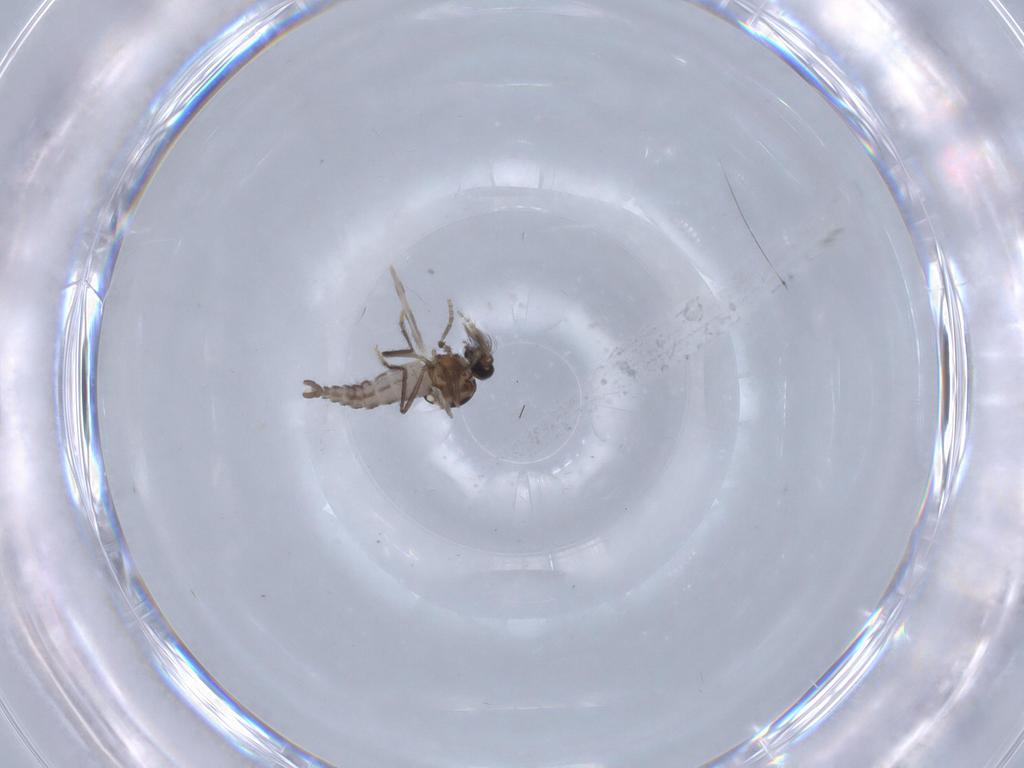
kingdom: Animalia
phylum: Arthropoda
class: Insecta
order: Diptera
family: Ceratopogonidae
